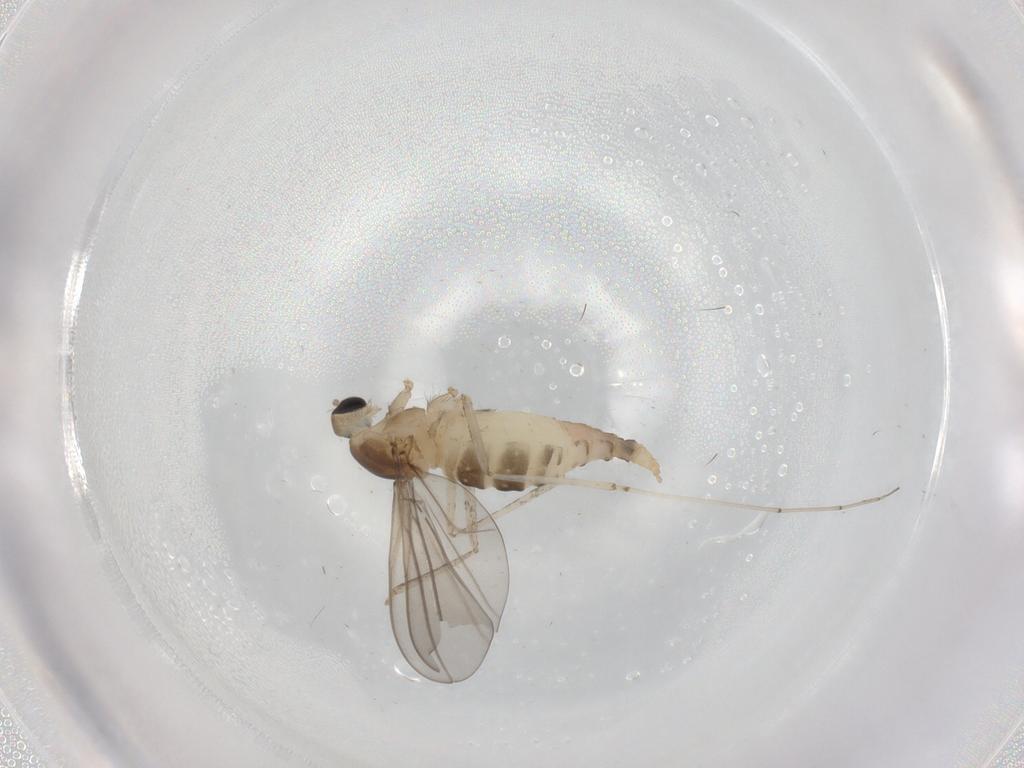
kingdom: Animalia
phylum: Arthropoda
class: Insecta
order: Diptera
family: Cecidomyiidae
